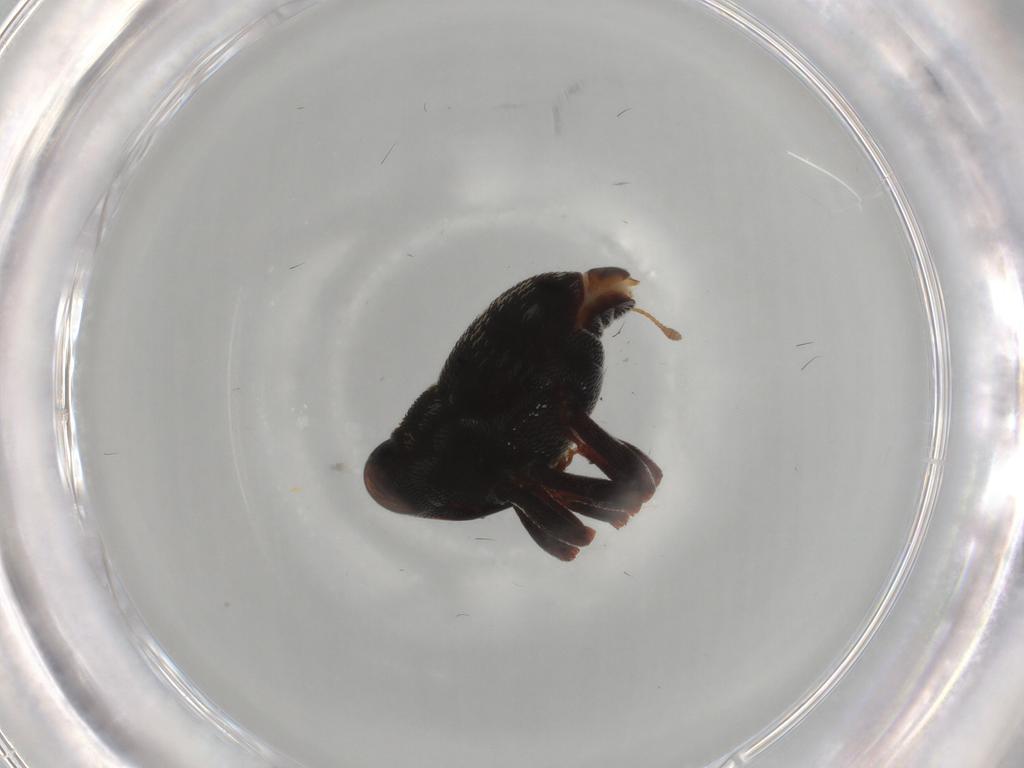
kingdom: Animalia
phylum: Arthropoda
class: Insecta
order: Coleoptera
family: Curculionidae
